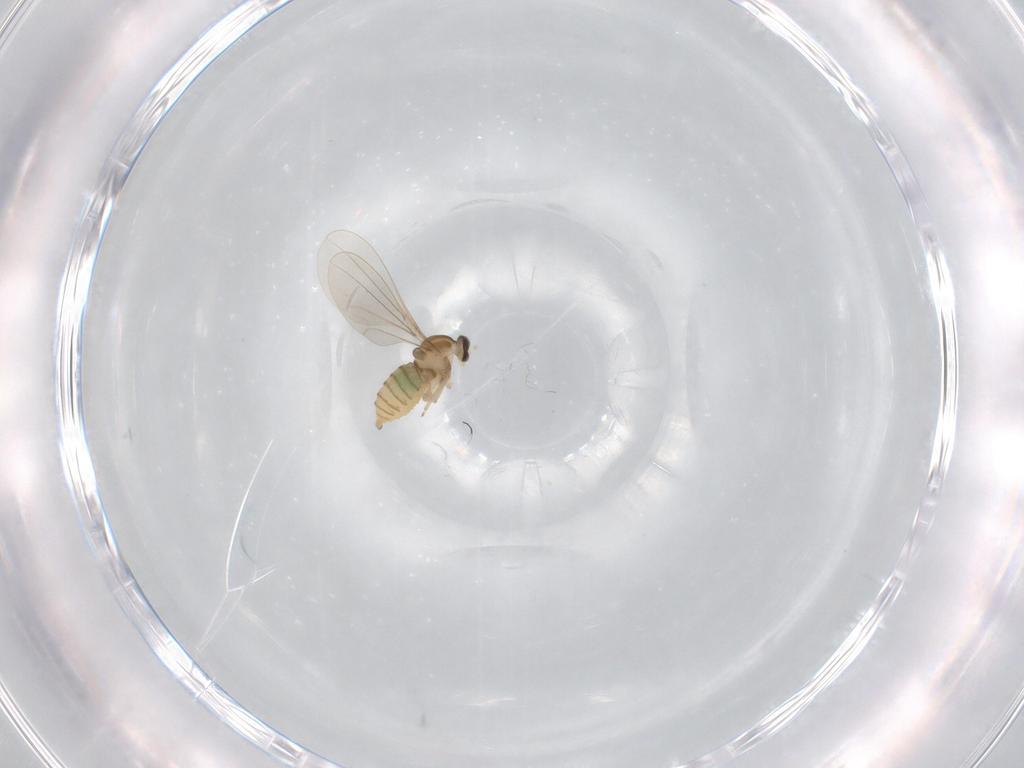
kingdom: Animalia
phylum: Arthropoda
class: Insecta
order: Diptera
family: Cecidomyiidae
